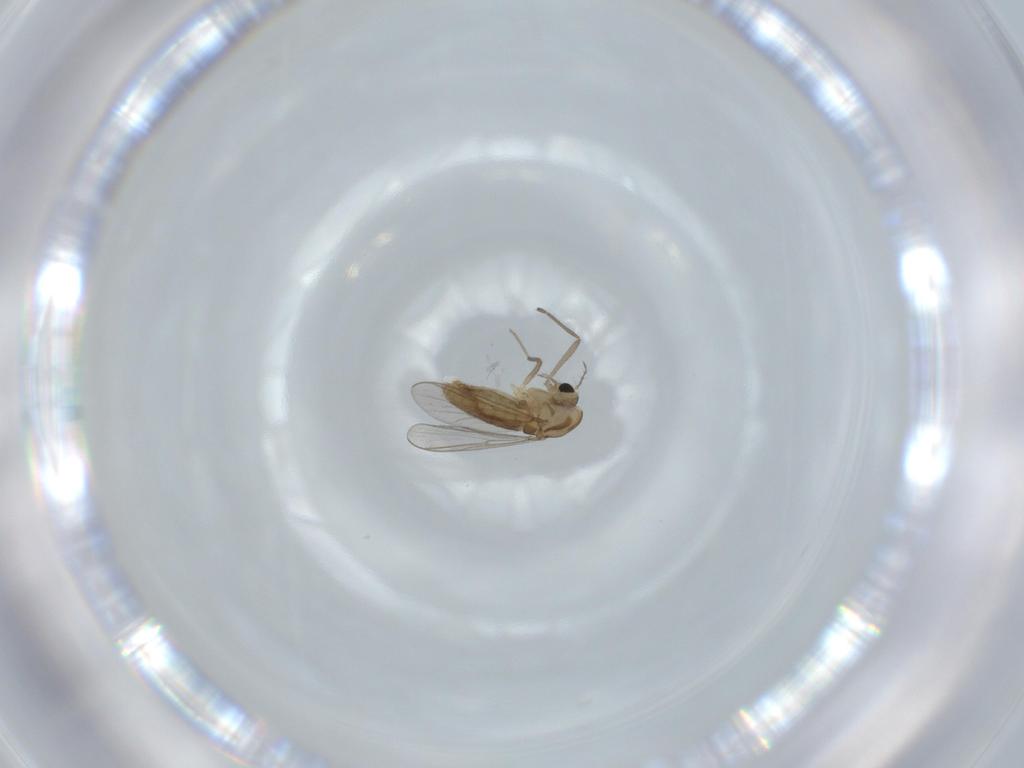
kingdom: Animalia
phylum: Arthropoda
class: Insecta
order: Diptera
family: Chironomidae
